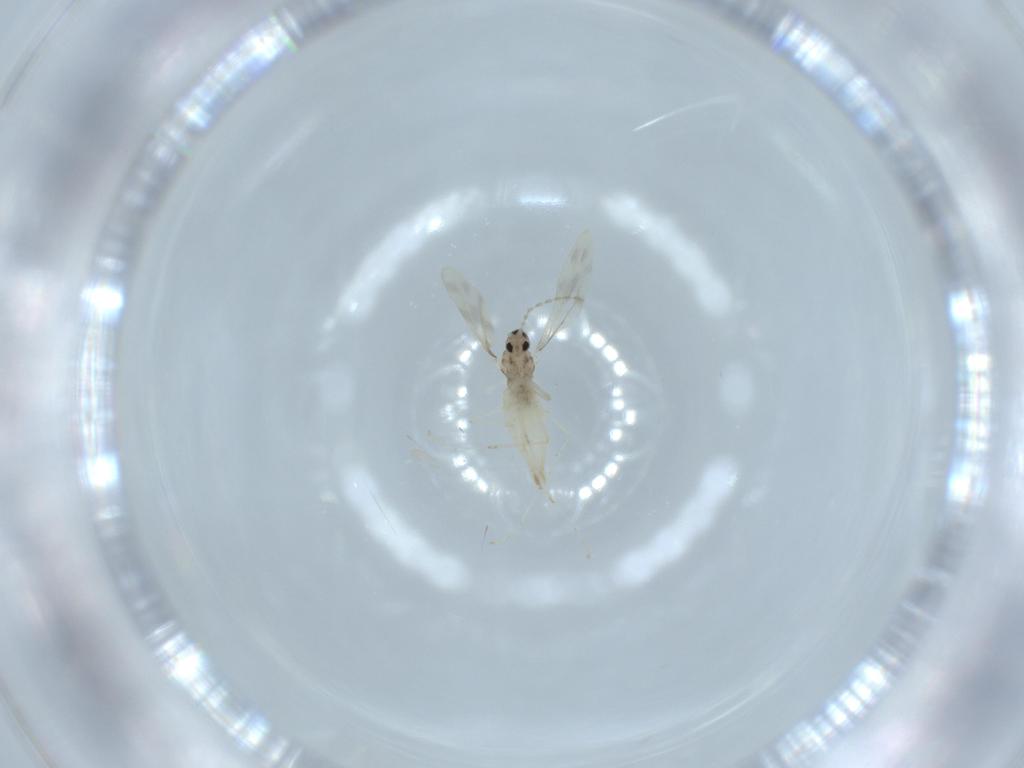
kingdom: Animalia
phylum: Arthropoda
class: Insecta
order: Diptera
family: Cecidomyiidae
